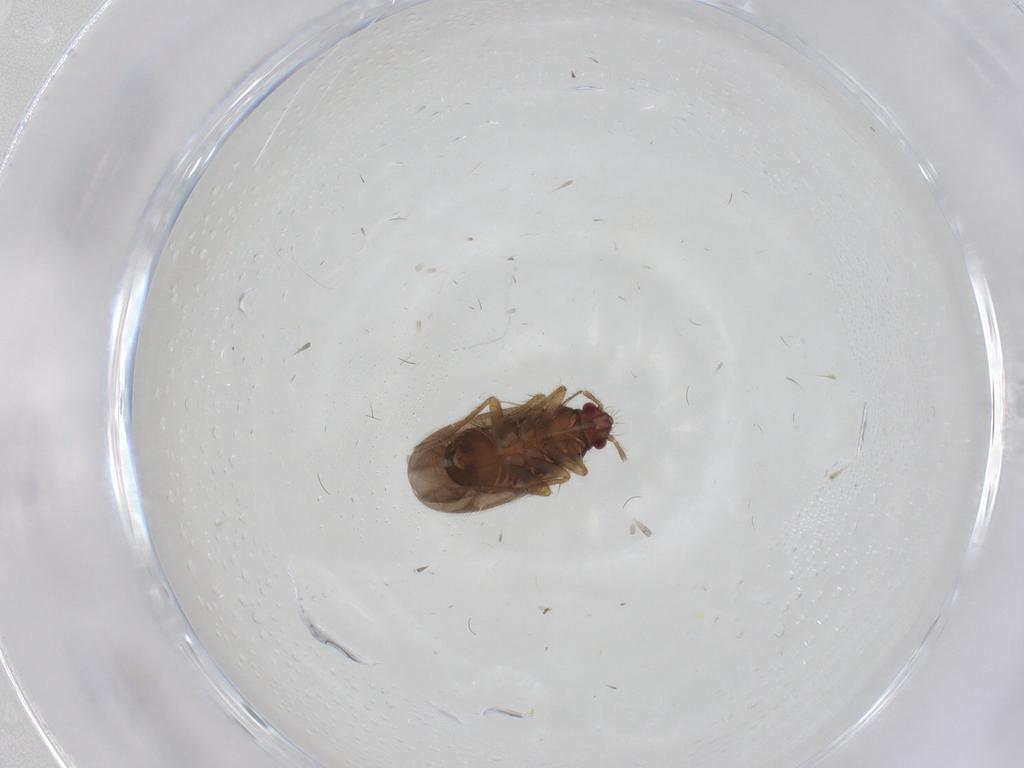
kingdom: Animalia
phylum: Arthropoda
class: Insecta
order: Hemiptera
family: Ceratocombidae
